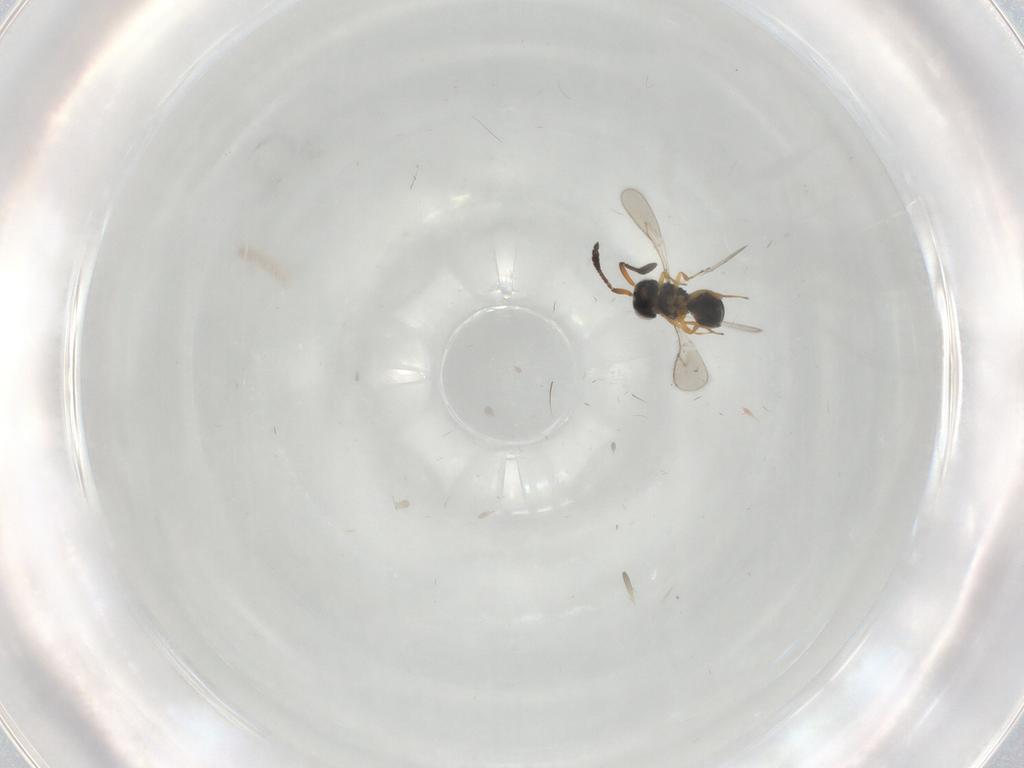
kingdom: Animalia
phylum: Arthropoda
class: Insecta
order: Hymenoptera
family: Scelionidae
